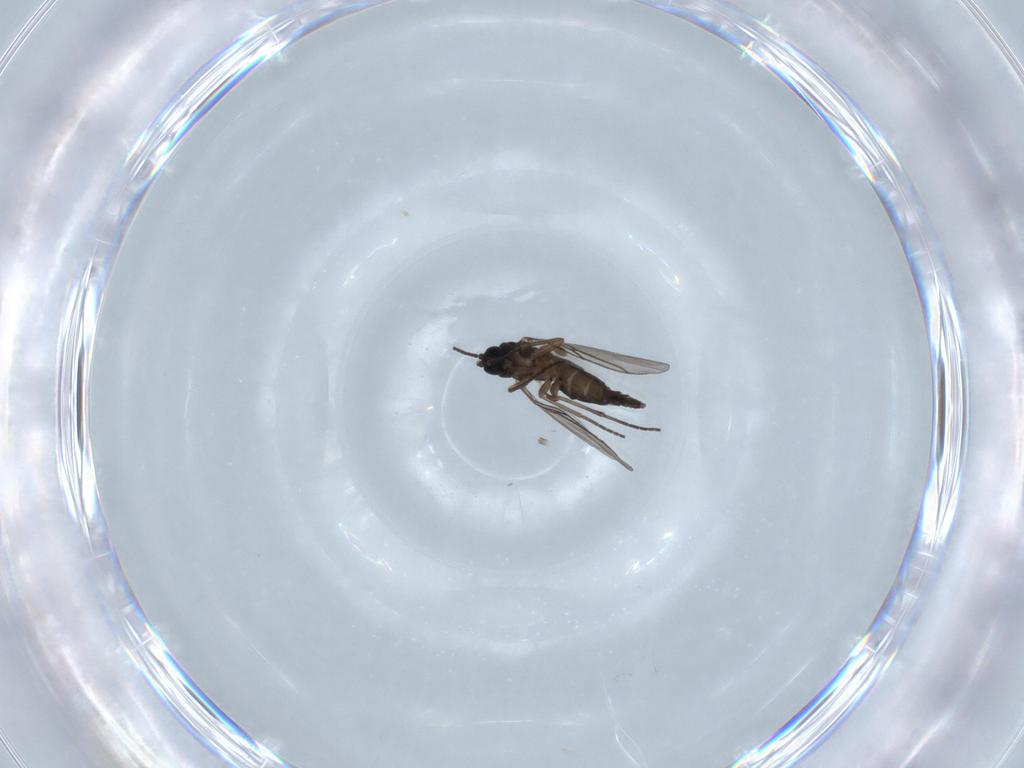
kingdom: Animalia
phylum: Arthropoda
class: Insecta
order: Diptera
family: Sciaridae
